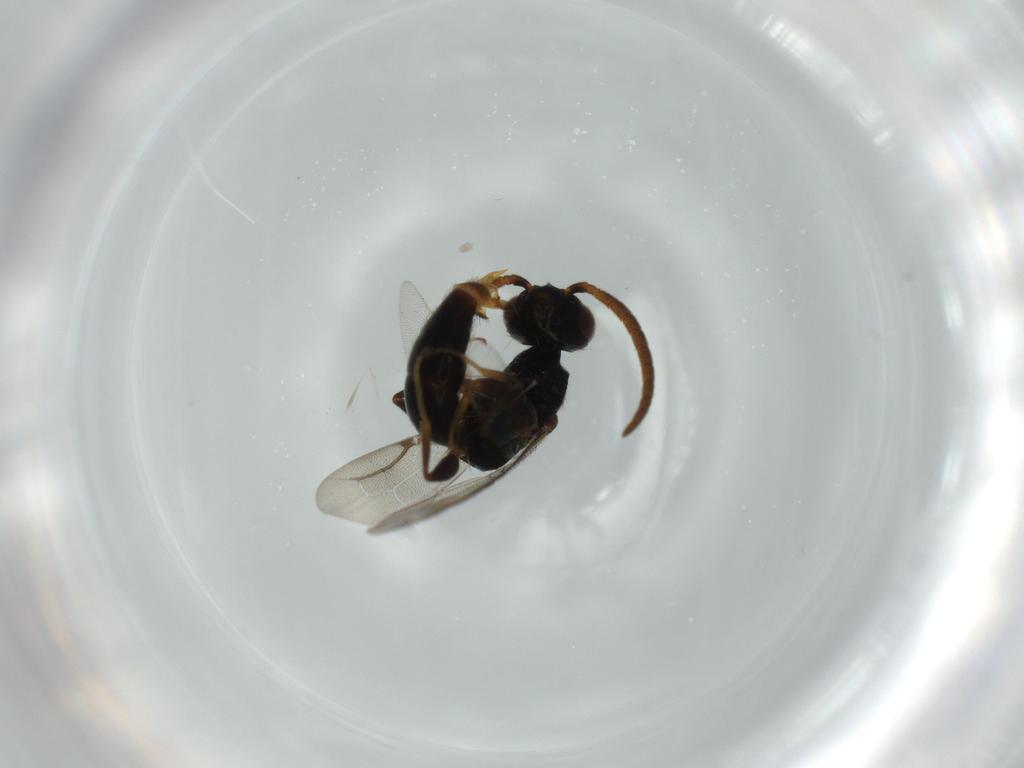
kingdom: Animalia
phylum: Arthropoda
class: Insecta
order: Hymenoptera
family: Bethylidae
